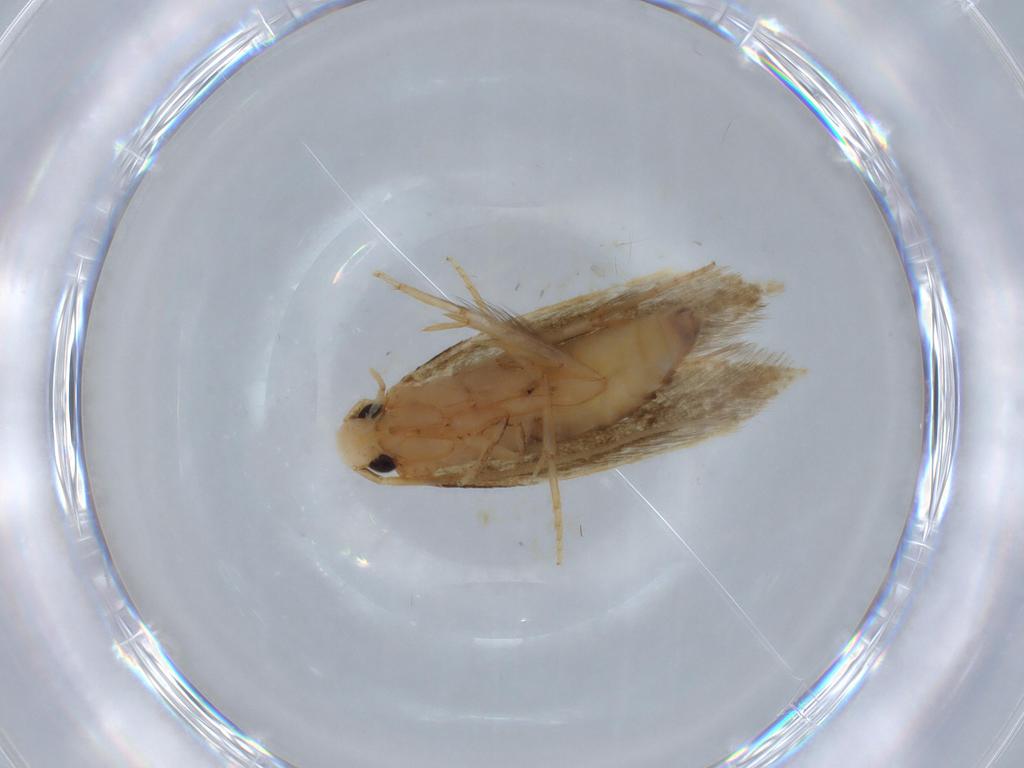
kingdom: Animalia
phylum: Arthropoda
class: Insecta
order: Lepidoptera
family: Tineidae
